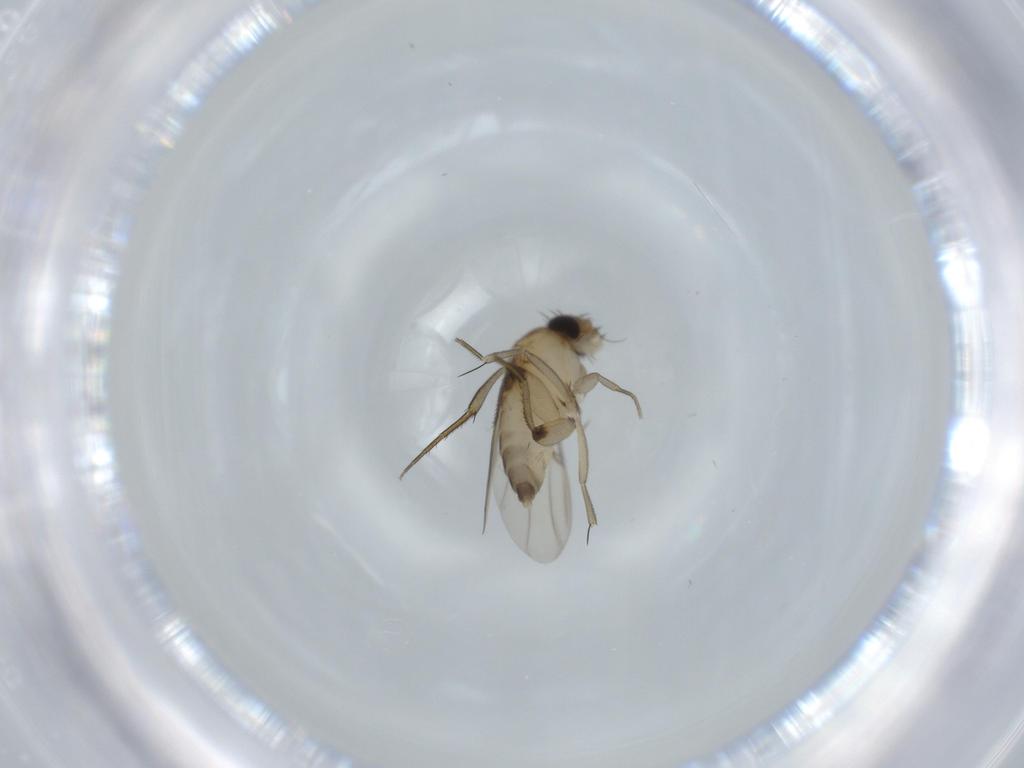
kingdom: Animalia
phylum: Arthropoda
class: Insecta
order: Diptera
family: Phoridae
